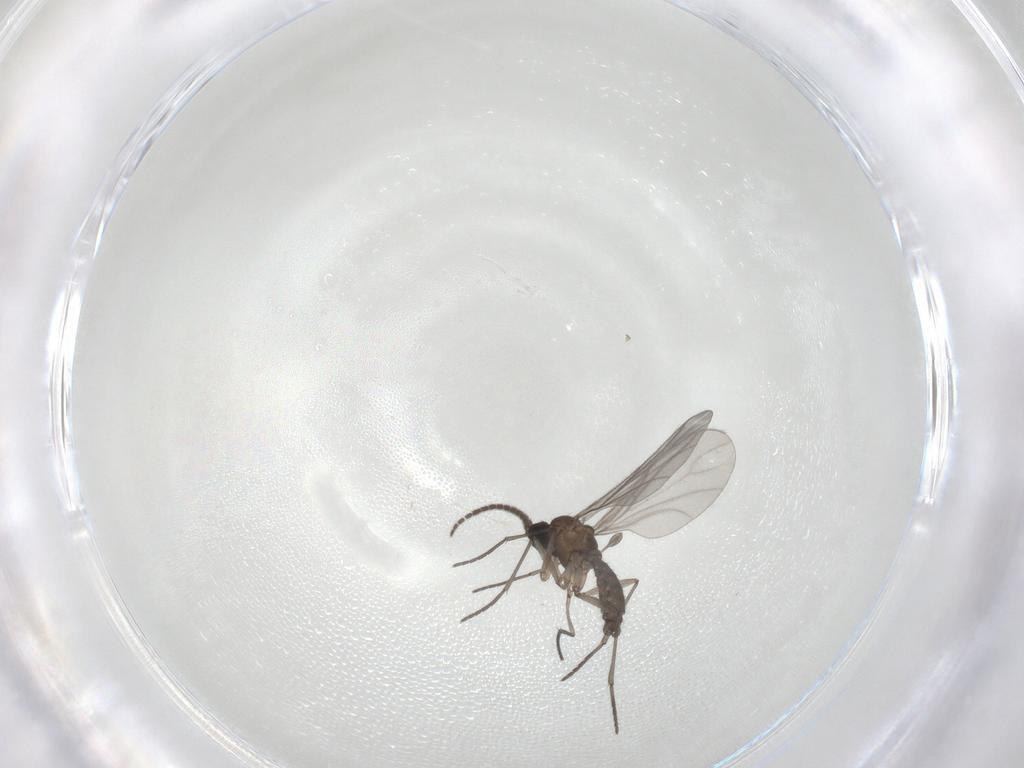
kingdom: Animalia
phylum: Arthropoda
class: Insecta
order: Diptera
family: Sciaridae
